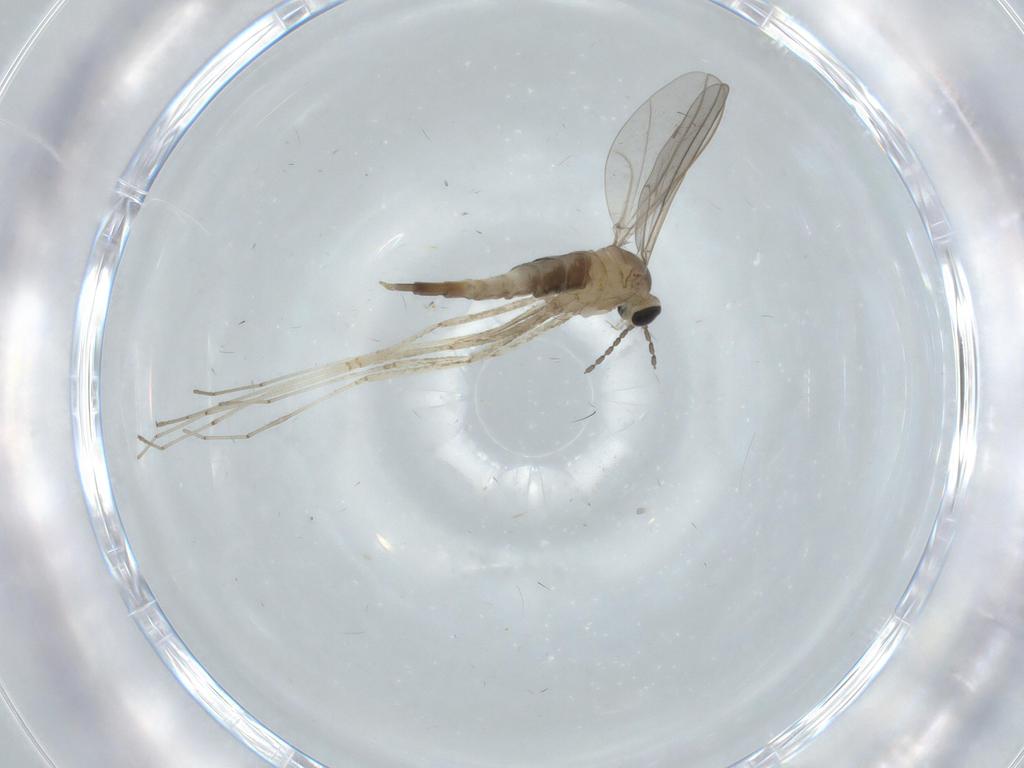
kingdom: Animalia
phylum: Arthropoda
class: Insecta
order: Diptera
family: Cecidomyiidae
